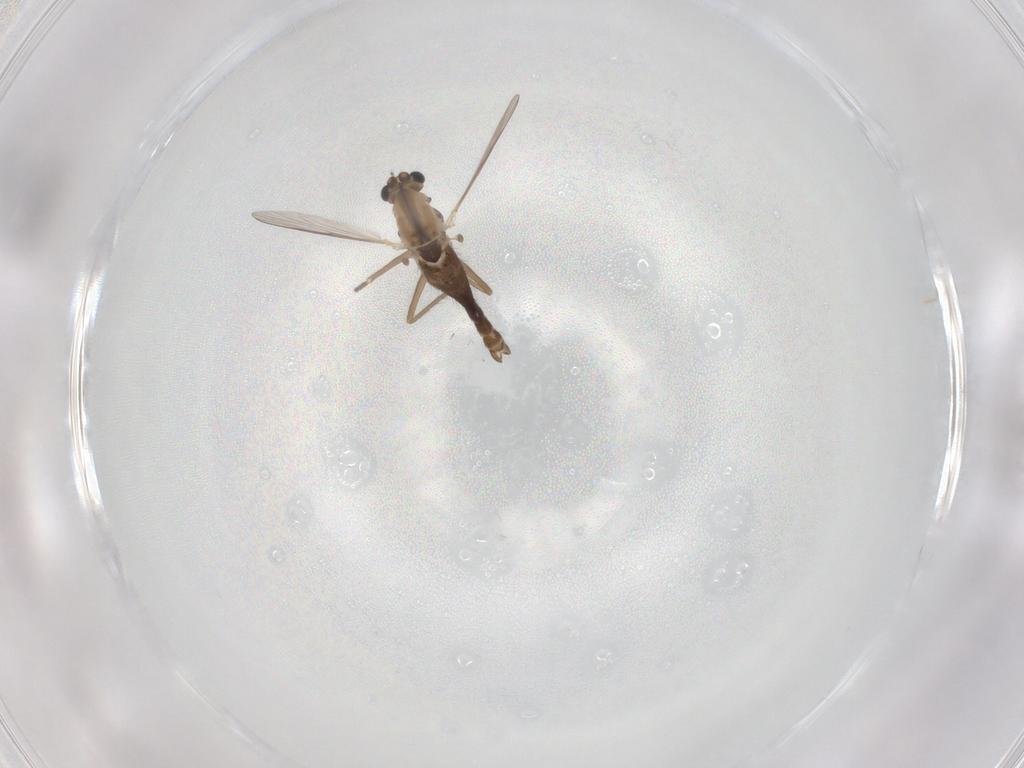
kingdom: Animalia
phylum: Arthropoda
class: Insecta
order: Diptera
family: Chironomidae
